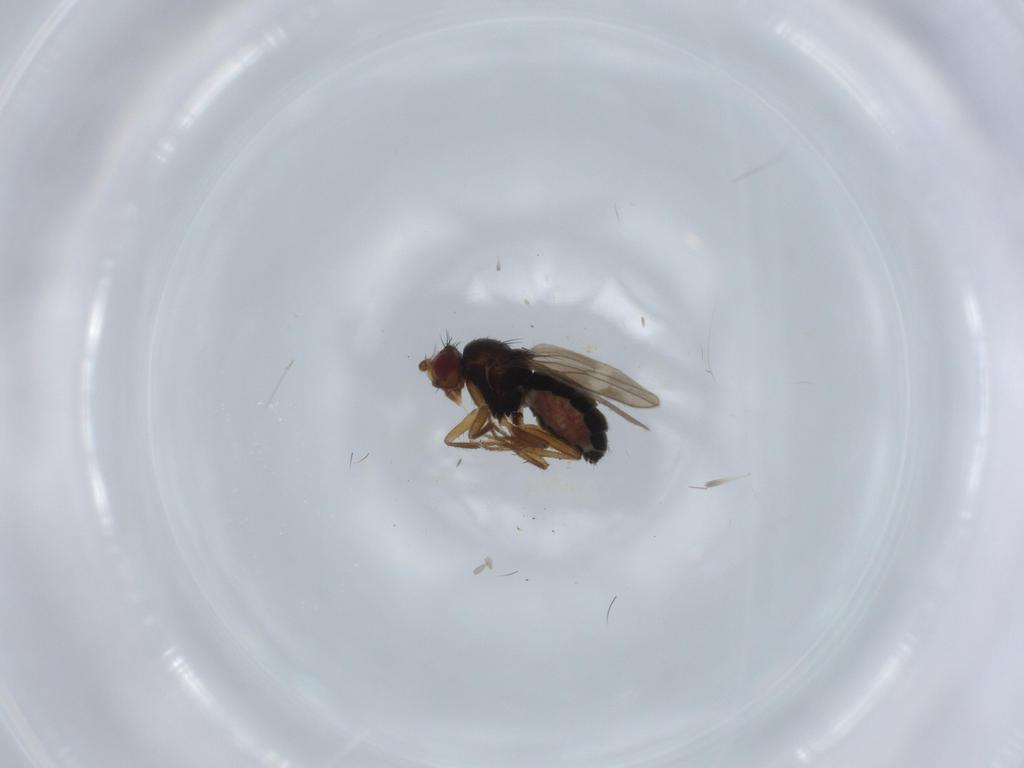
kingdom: Animalia
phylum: Arthropoda
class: Insecta
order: Diptera
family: Sphaeroceridae
